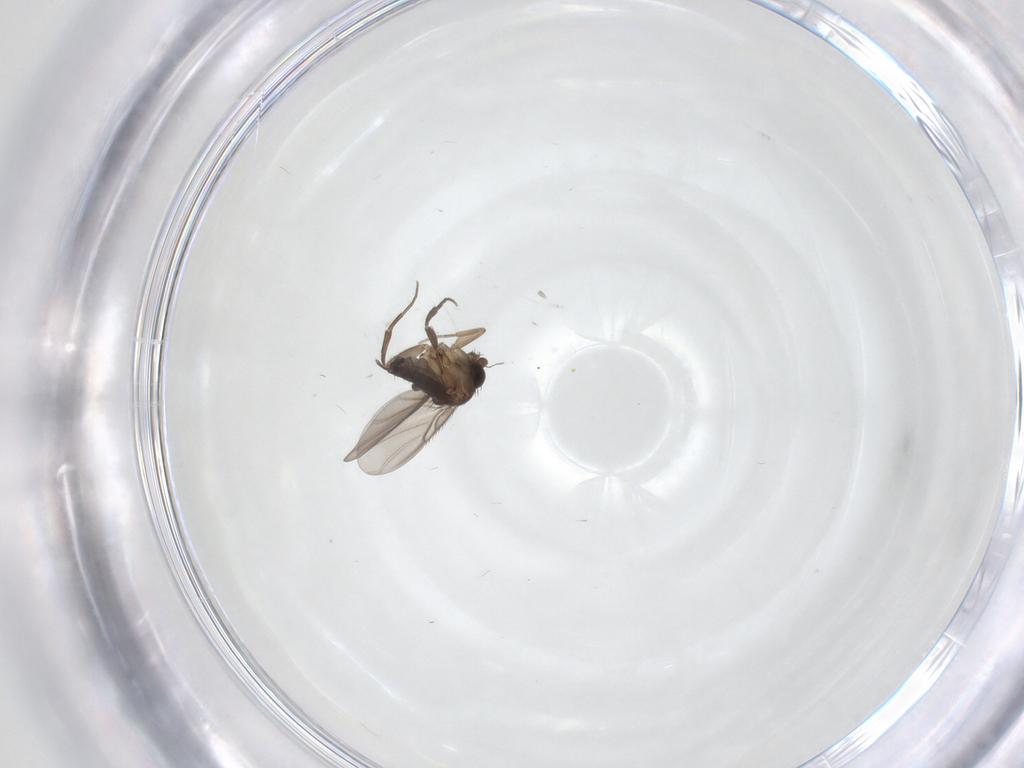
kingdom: Animalia
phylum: Arthropoda
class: Insecta
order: Diptera
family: Phoridae
